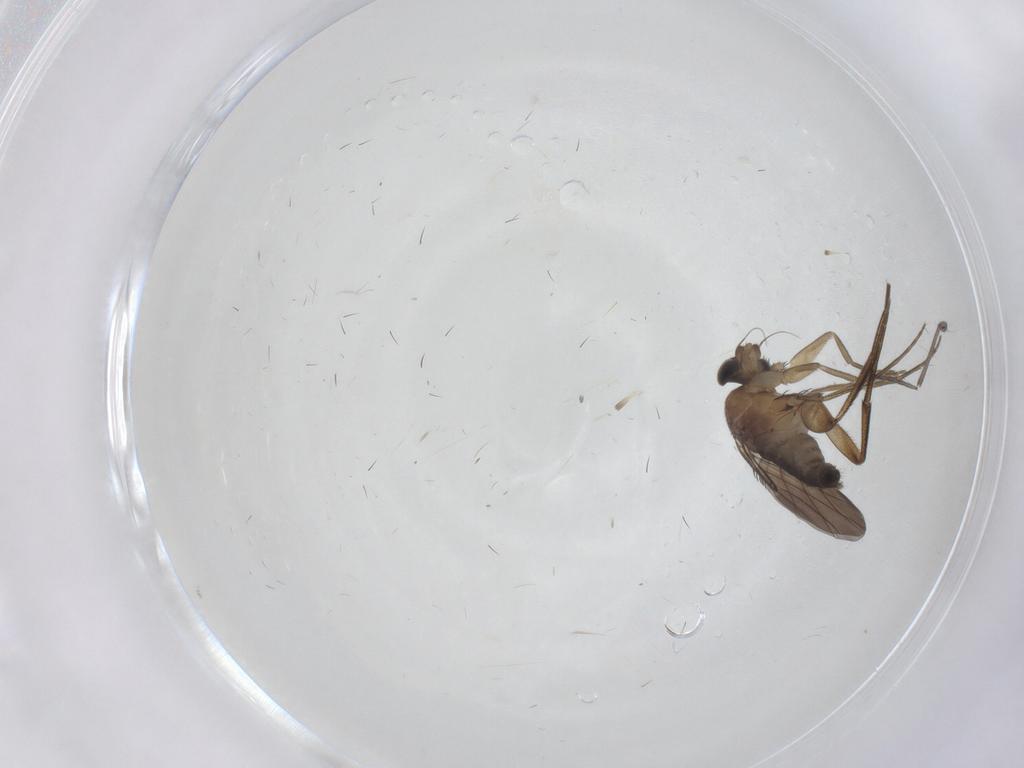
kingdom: Animalia
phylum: Arthropoda
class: Insecta
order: Diptera
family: Phoridae
